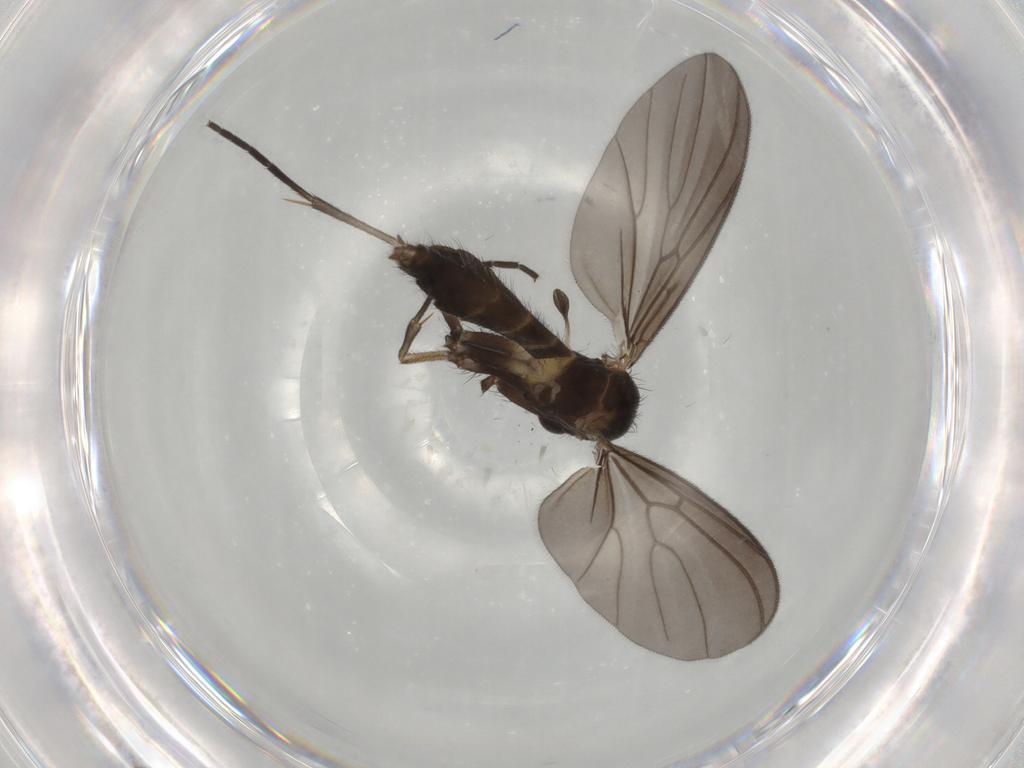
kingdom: Animalia
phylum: Arthropoda
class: Insecta
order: Diptera
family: Mycetophilidae
